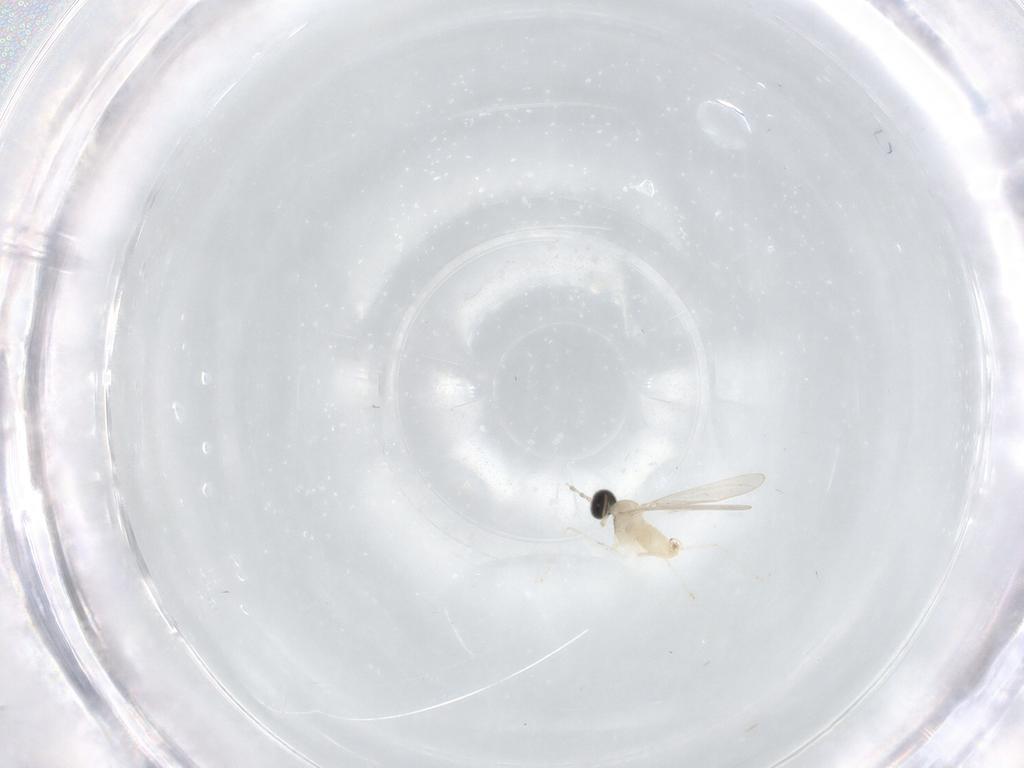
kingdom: Animalia
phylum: Arthropoda
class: Insecta
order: Diptera
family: Cecidomyiidae
